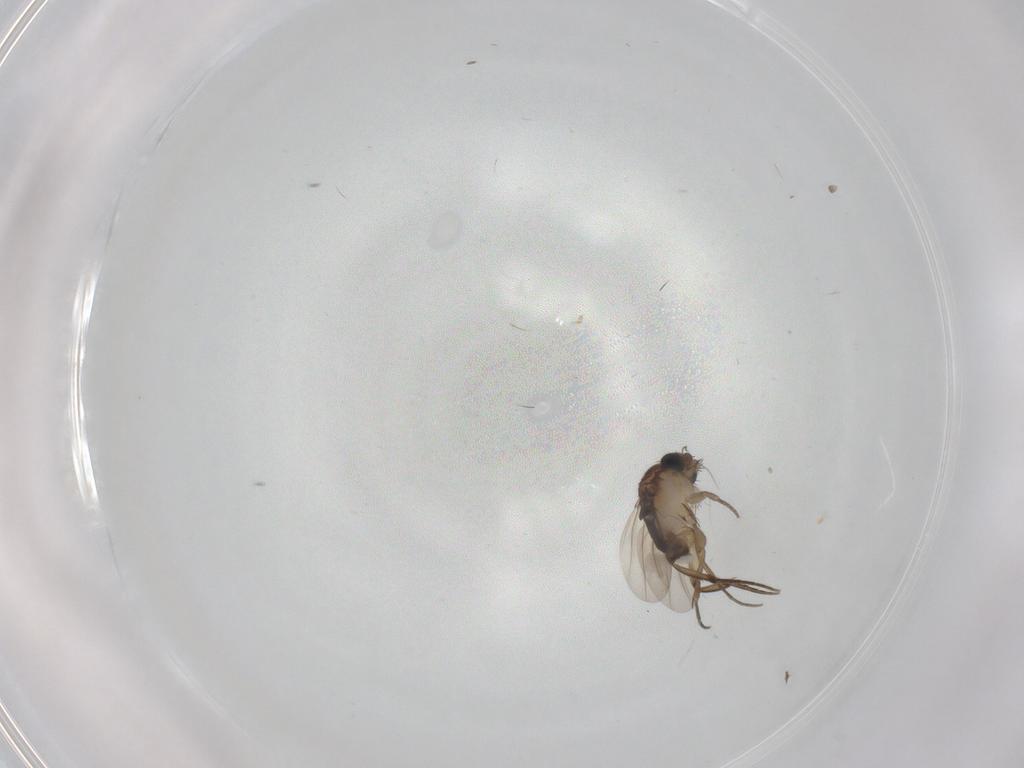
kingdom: Animalia
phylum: Arthropoda
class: Insecta
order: Diptera
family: Phoridae
